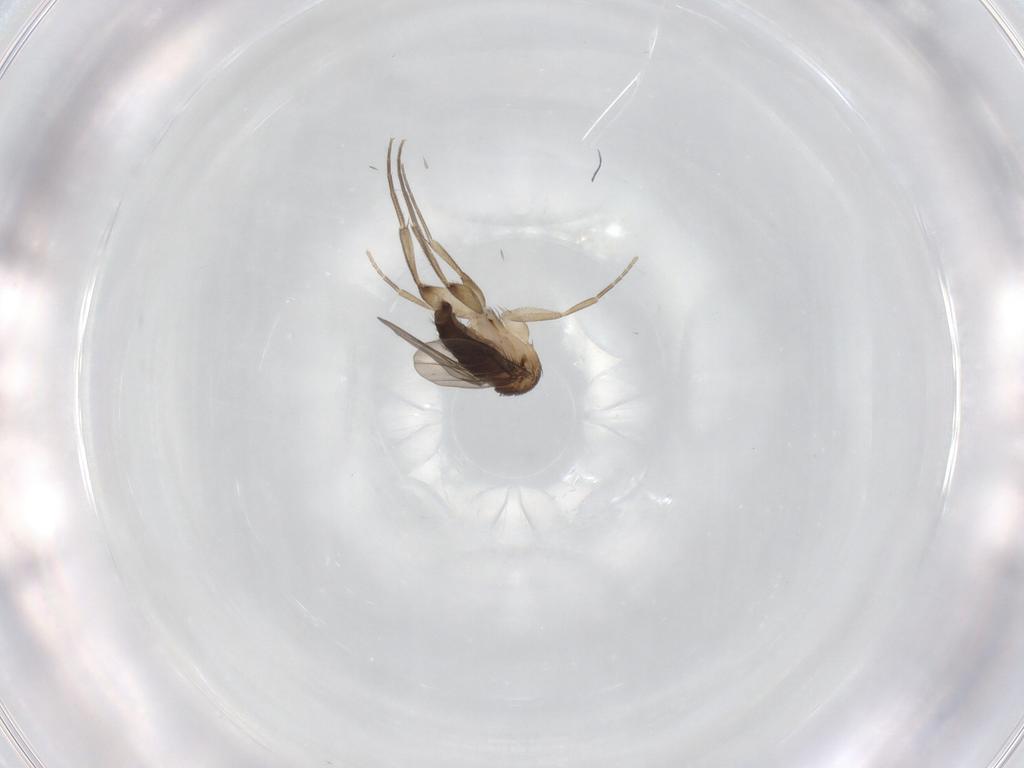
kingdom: Animalia
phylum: Arthropoda
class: Insecta
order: Diptera
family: Phoridae
